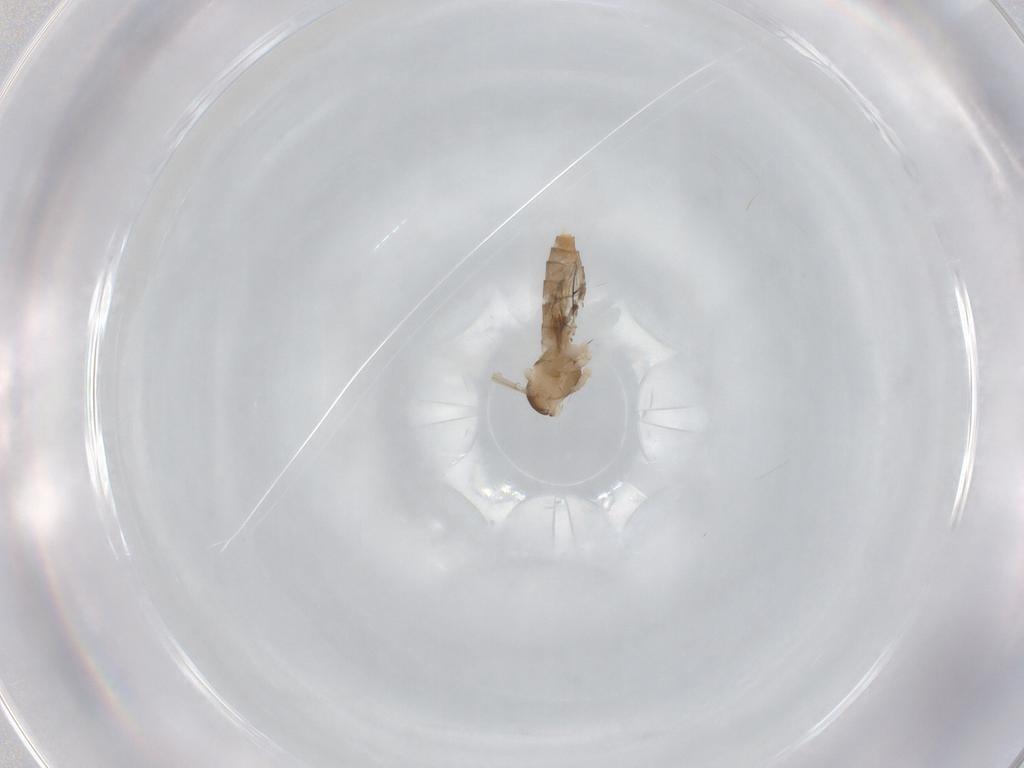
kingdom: Animalia
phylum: Arthropoda
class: Insecta
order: Diptera
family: Cecidomyiidae
